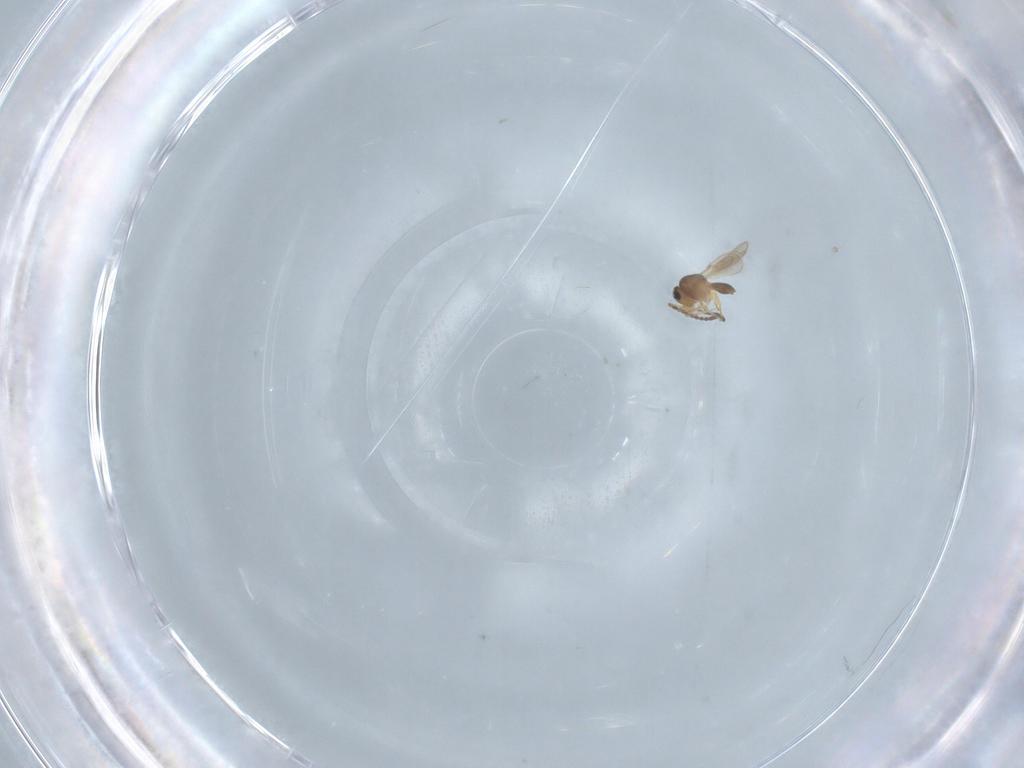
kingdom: Animalia
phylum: Arthropoda
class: Insecta
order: Hymenoptera
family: Scelionidae
